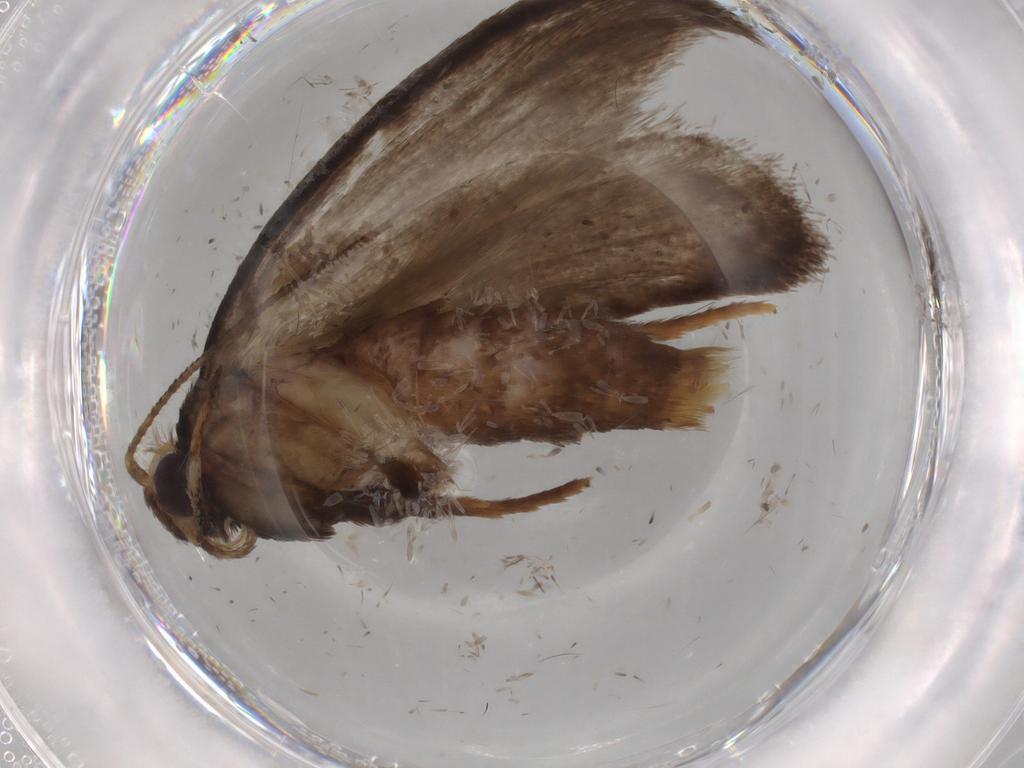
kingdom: Animalia
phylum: Arthropoda
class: Insecta
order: Lepidoptera
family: Oecophoridae
